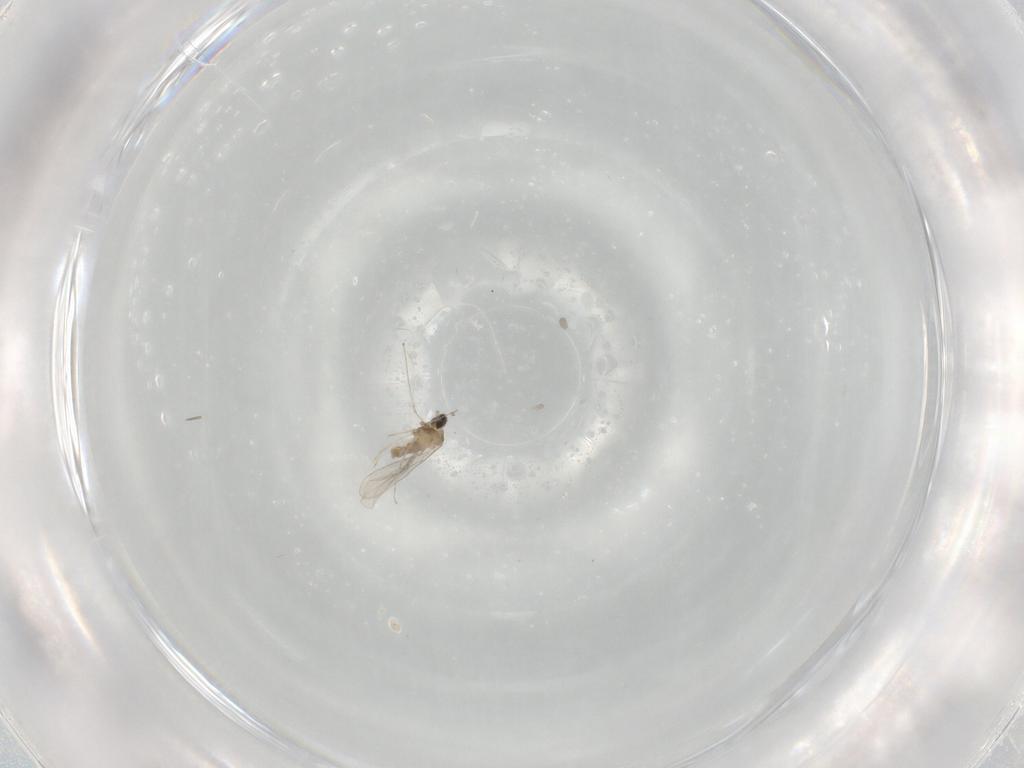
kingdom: Animalia
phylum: Arthropoda
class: Insecta
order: Diptera
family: Cecidomyiidae
